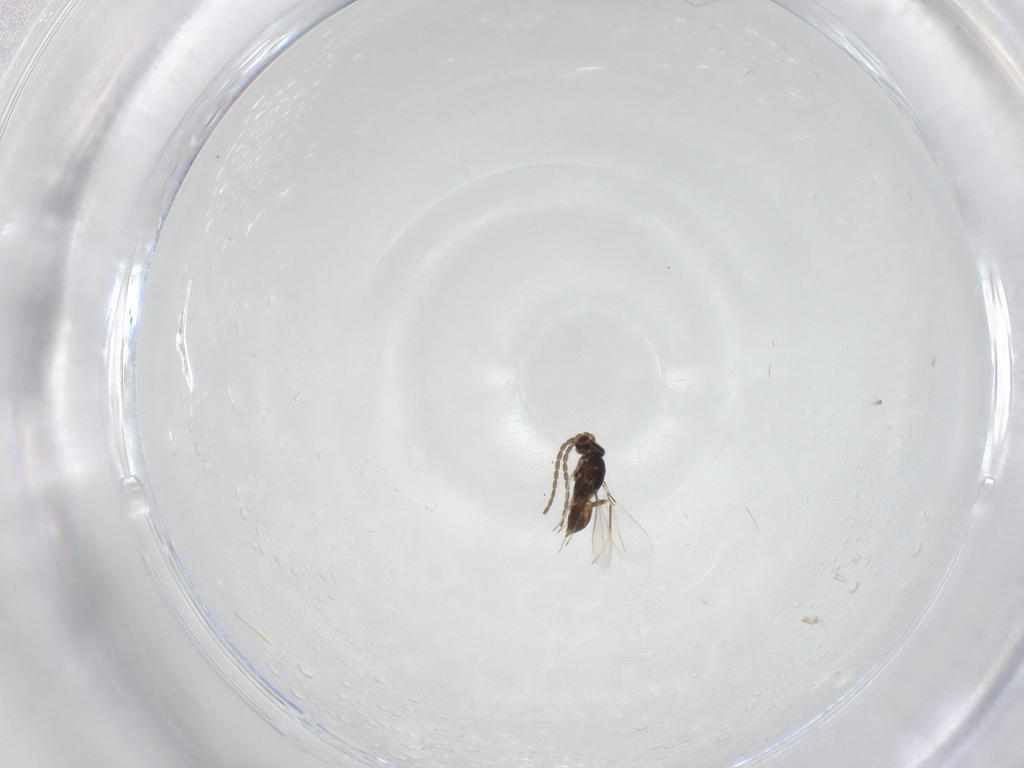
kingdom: Animalia
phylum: Arthropoda
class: Insecta
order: Hymenoptera
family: Mymaridae
